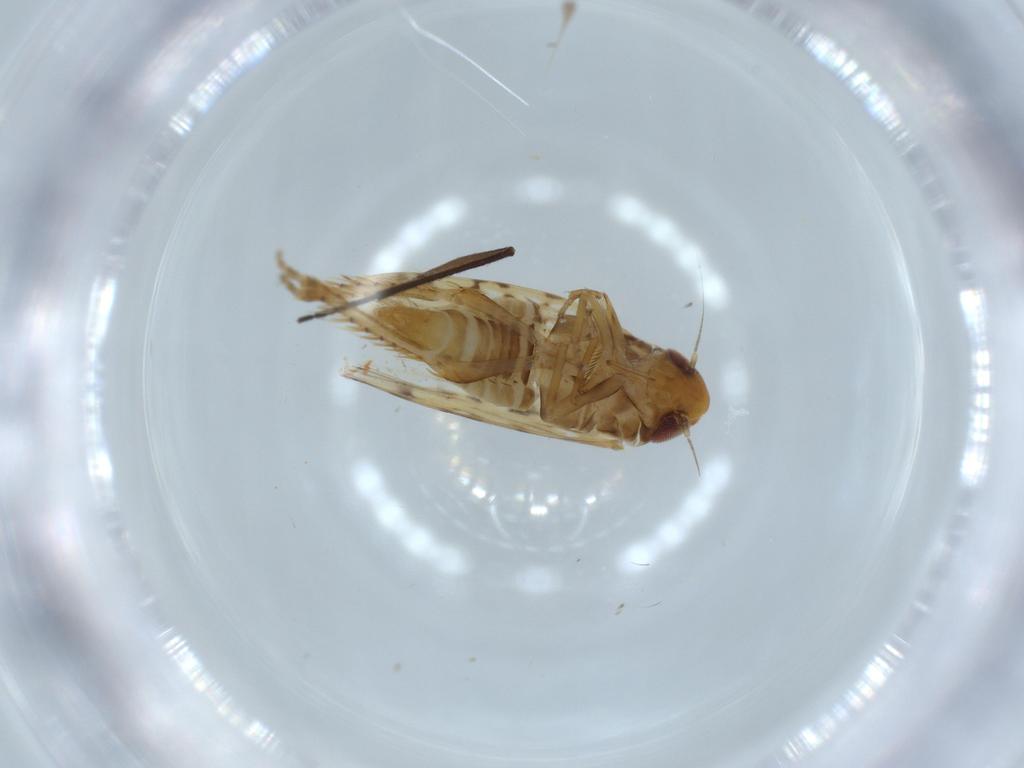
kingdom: Animalia
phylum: Arthropoda
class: Insecta
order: Hemiptera
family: Cicadellidae
